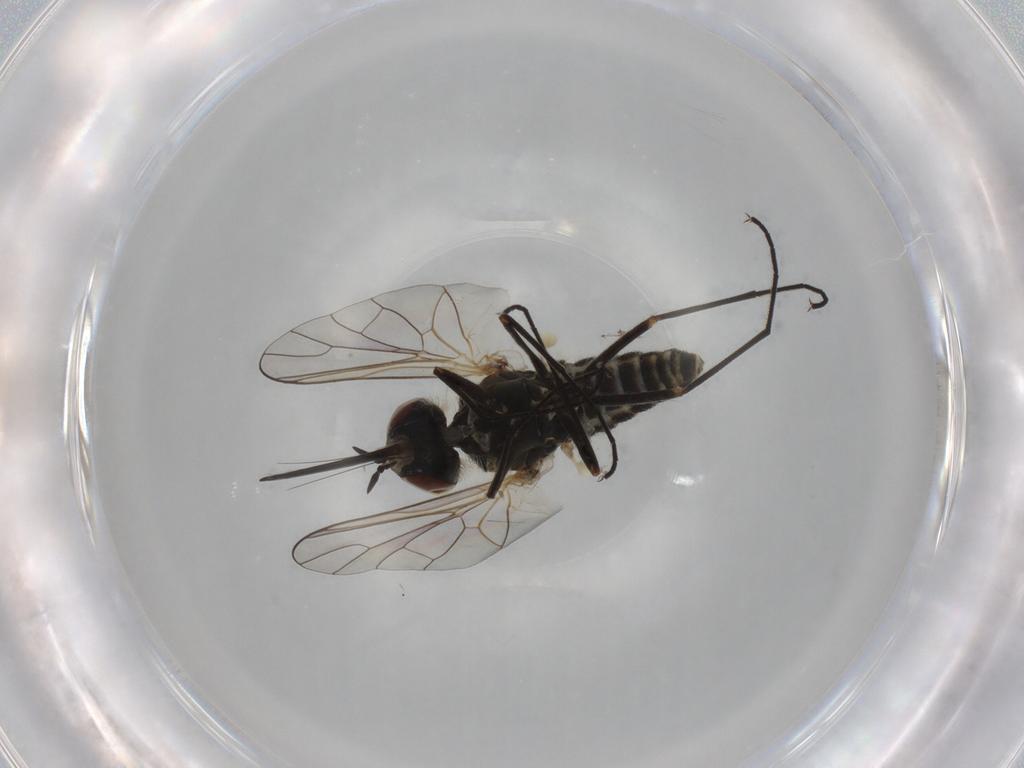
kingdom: Animalia
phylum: Arthropoda
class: Insecta
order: Diptera
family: Bombyliidae
